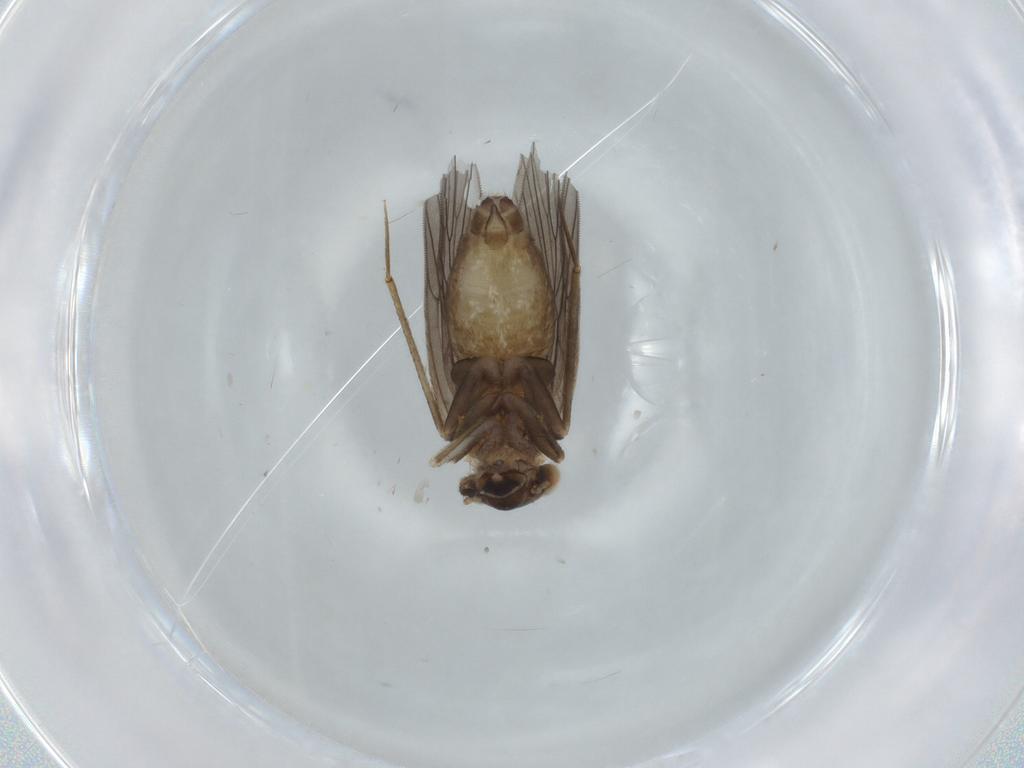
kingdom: Animalia
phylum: Arthropoda
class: Insecta
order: Psocodea
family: Lepidopsocidae
